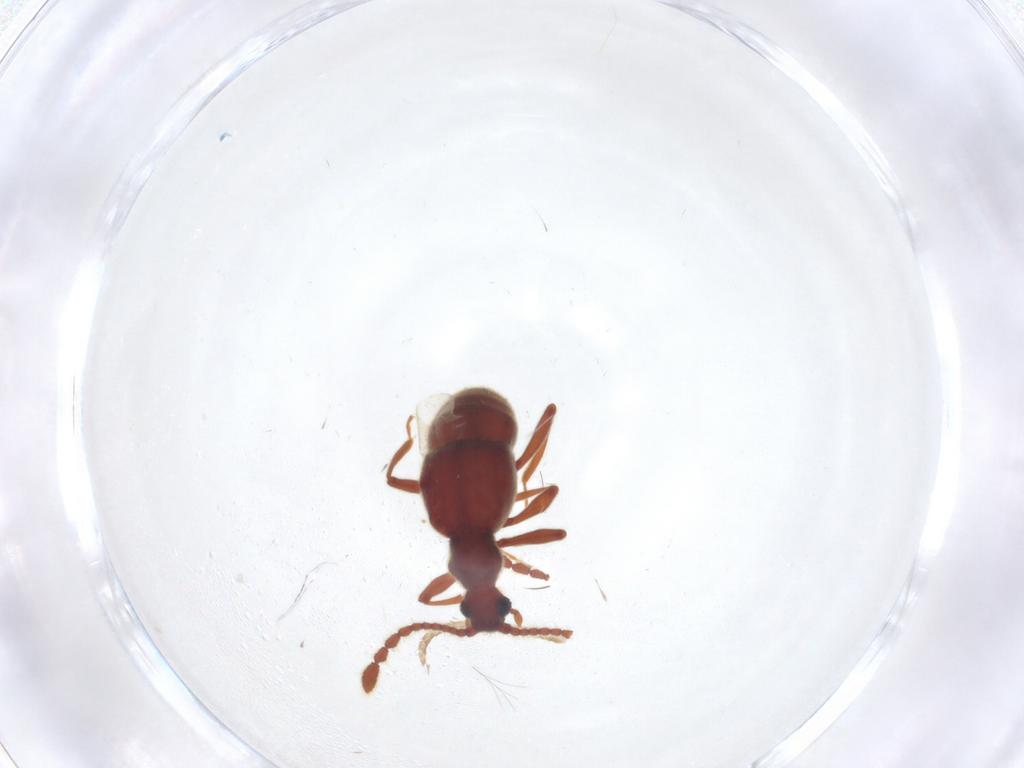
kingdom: Animalia
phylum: Arthropoda
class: Insecta
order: Coleoptera
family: Staphylinidae
